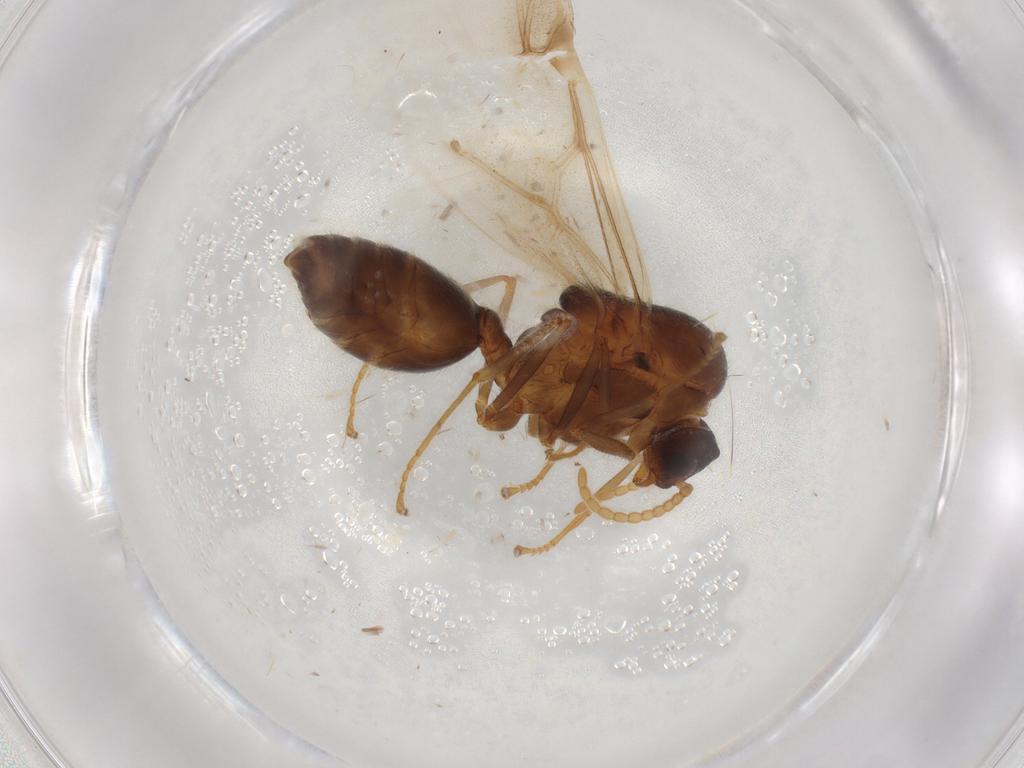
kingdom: Animalia
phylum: Arthropoda
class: Insecta
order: Hymenoptera
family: Formicidae
